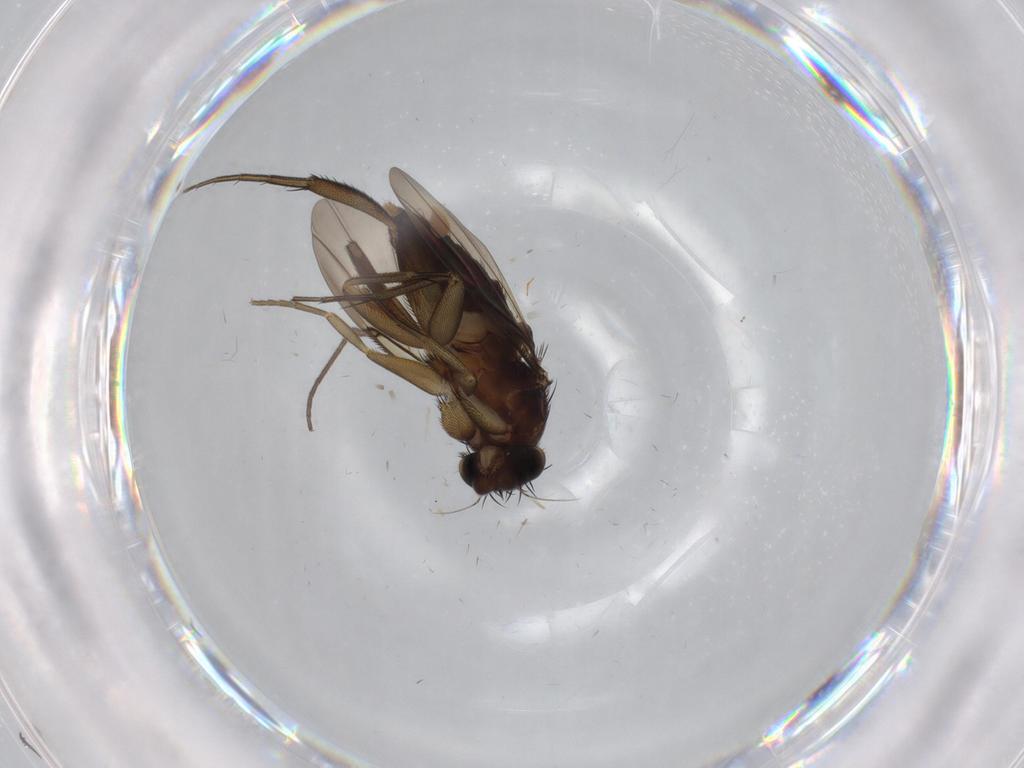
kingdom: Animalia
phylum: Arthropoda
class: Insecta
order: Diptera
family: Phoridae
